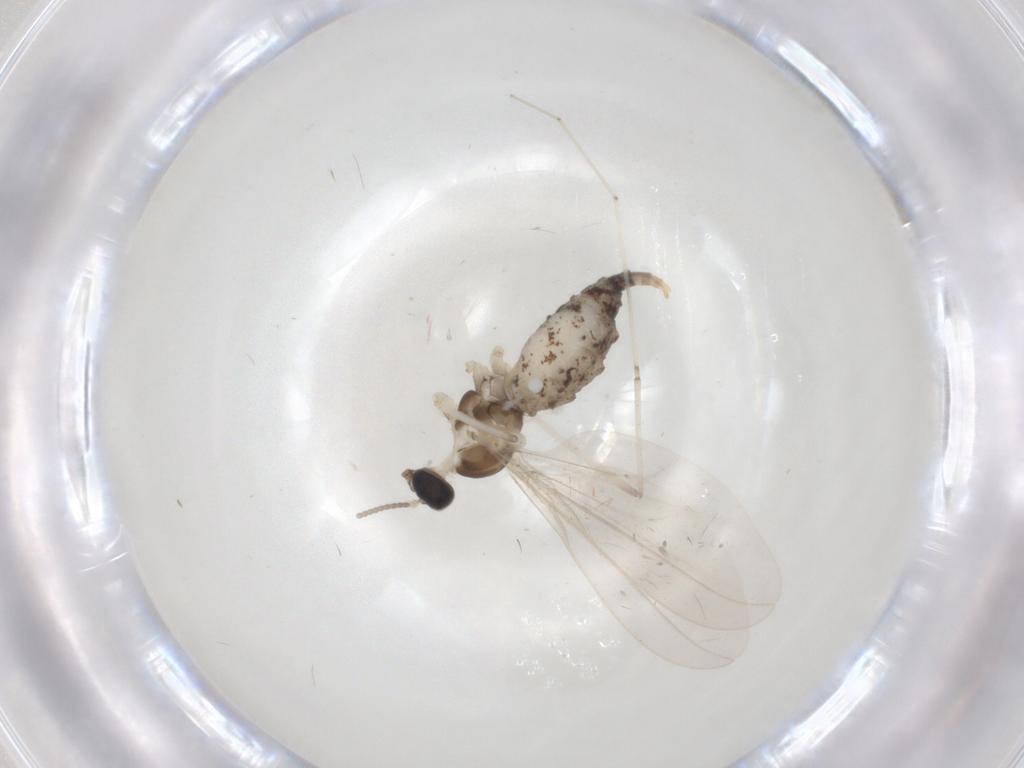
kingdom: Animalia
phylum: Arthropoda
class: Insecta
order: Diptera
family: Cecidomyiidae
